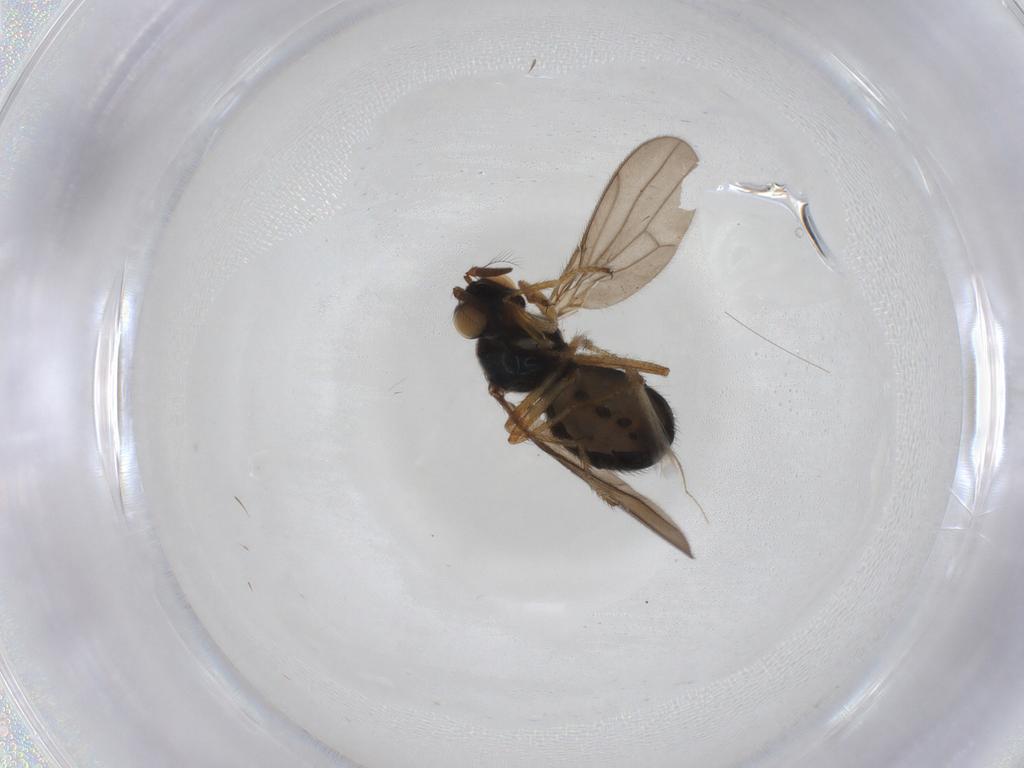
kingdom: Animalia
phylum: Arthropoda
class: Insecta
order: Diptera
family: Ephydridae
